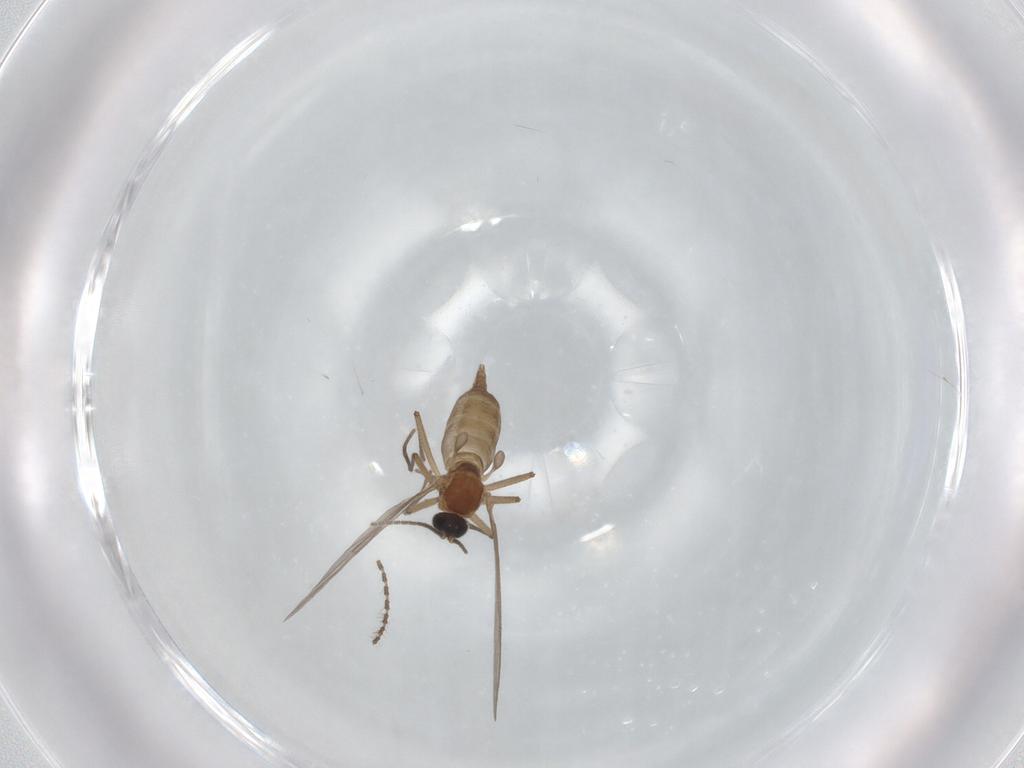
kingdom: Animalia
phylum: Arthropoda
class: Insecta
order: Diptera
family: Sciaridae
